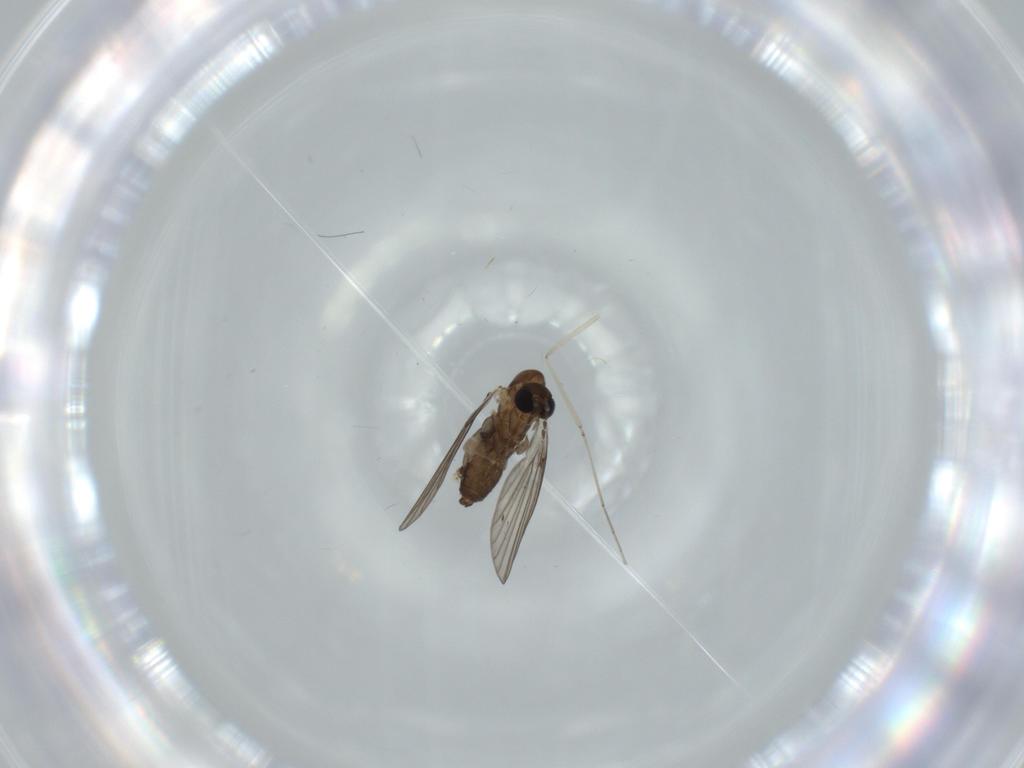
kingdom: Animalia
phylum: Arthropoda
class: Insecta
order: Diptera
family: Psychodidae
